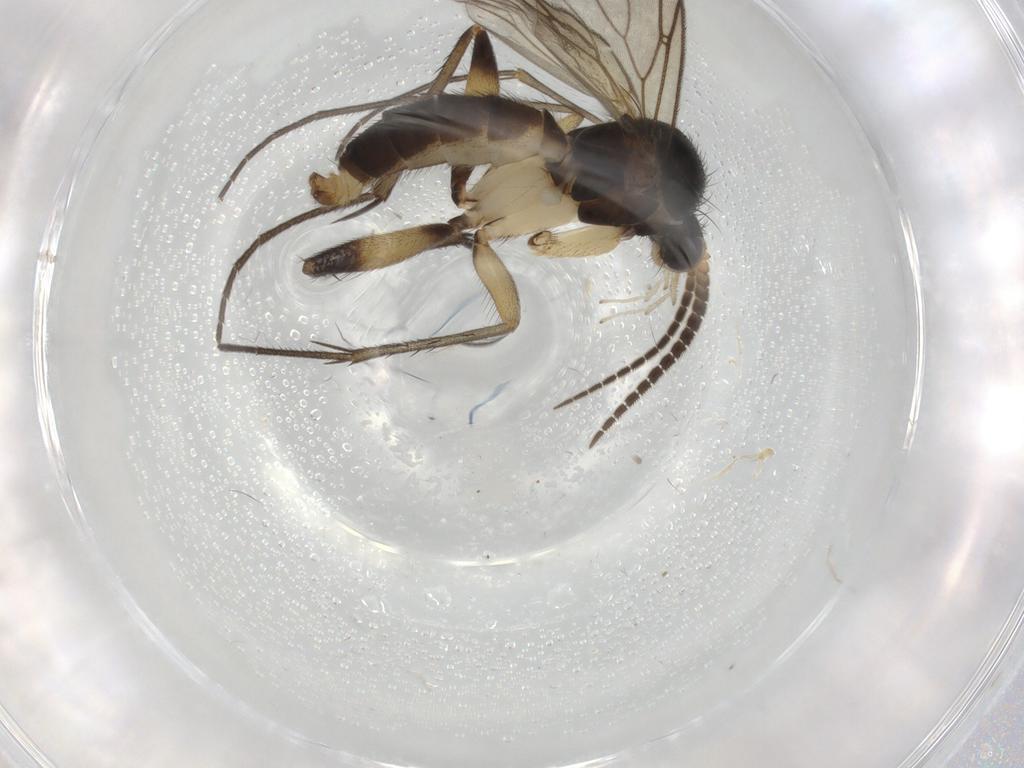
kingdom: Animalia
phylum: Arthropoda
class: Insecta
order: Diptera
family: Mycetophilidae
